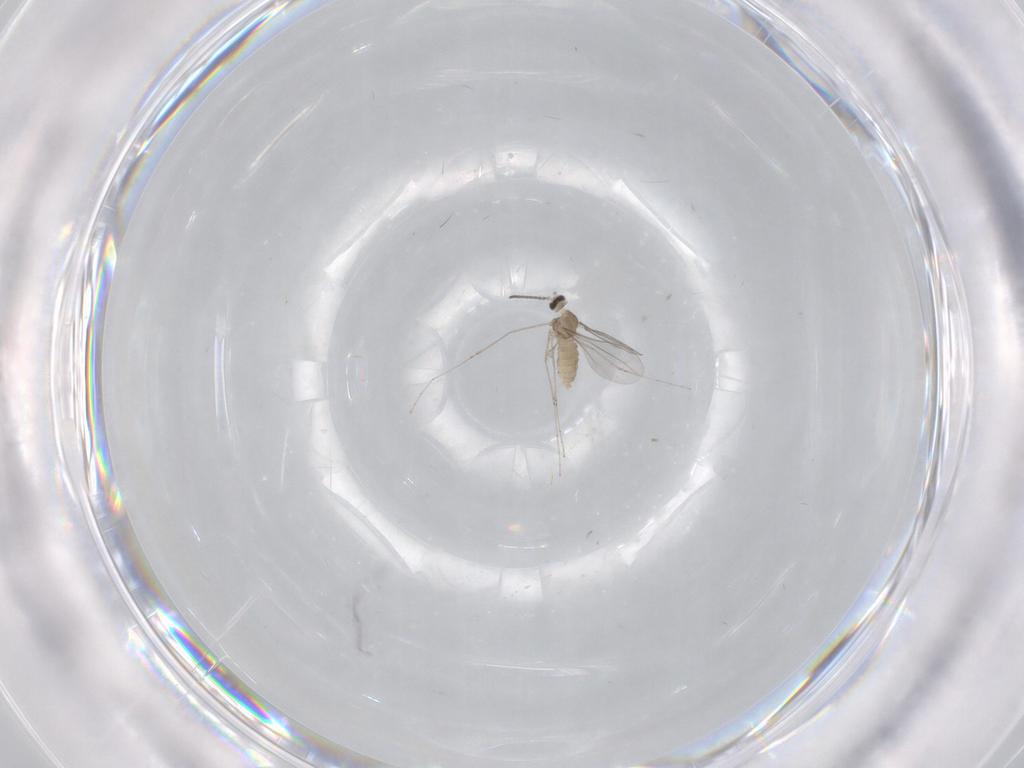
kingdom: Animalia
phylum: Arthropoda
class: Insecta
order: Diptera
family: Cecidomyiidae
